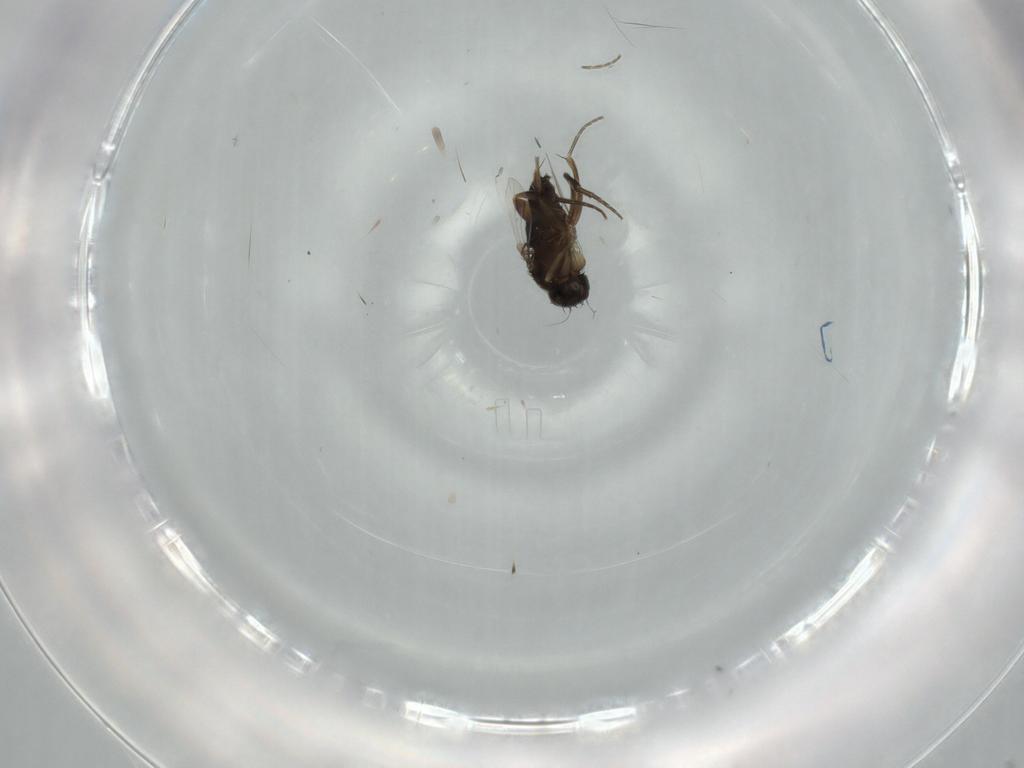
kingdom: Animalia
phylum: Arthropoda
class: Insecta
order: Diptera
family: Phoridae
